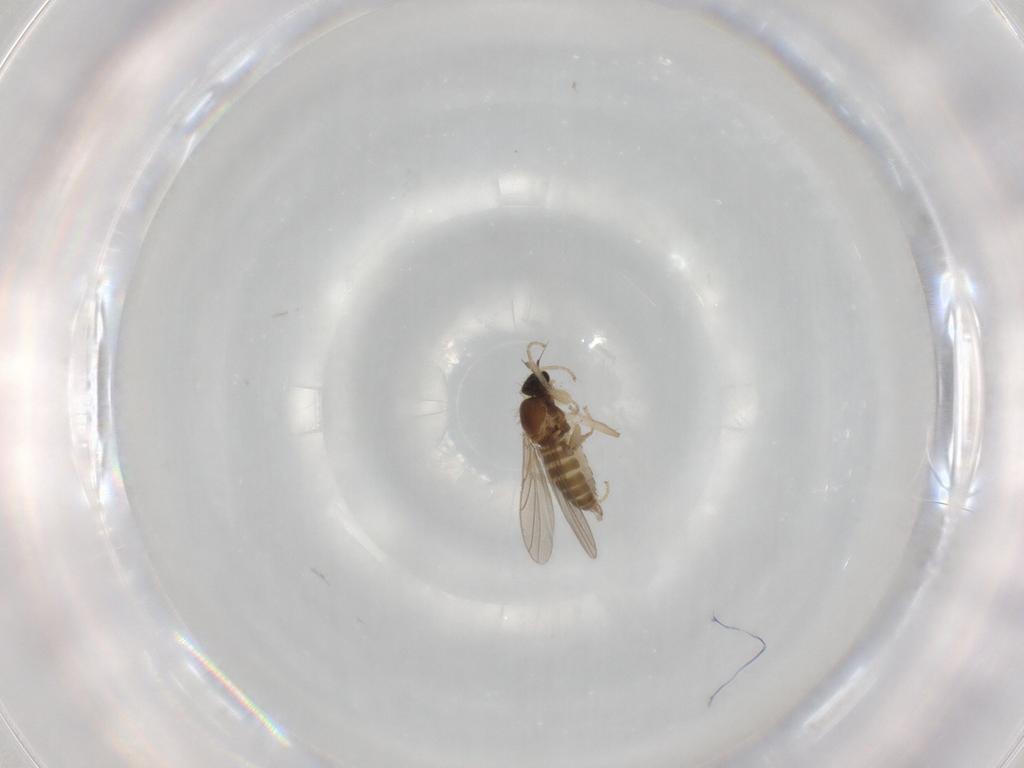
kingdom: Animalia
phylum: Arthropoda
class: Insecta
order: Diptera
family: Hybotidae
